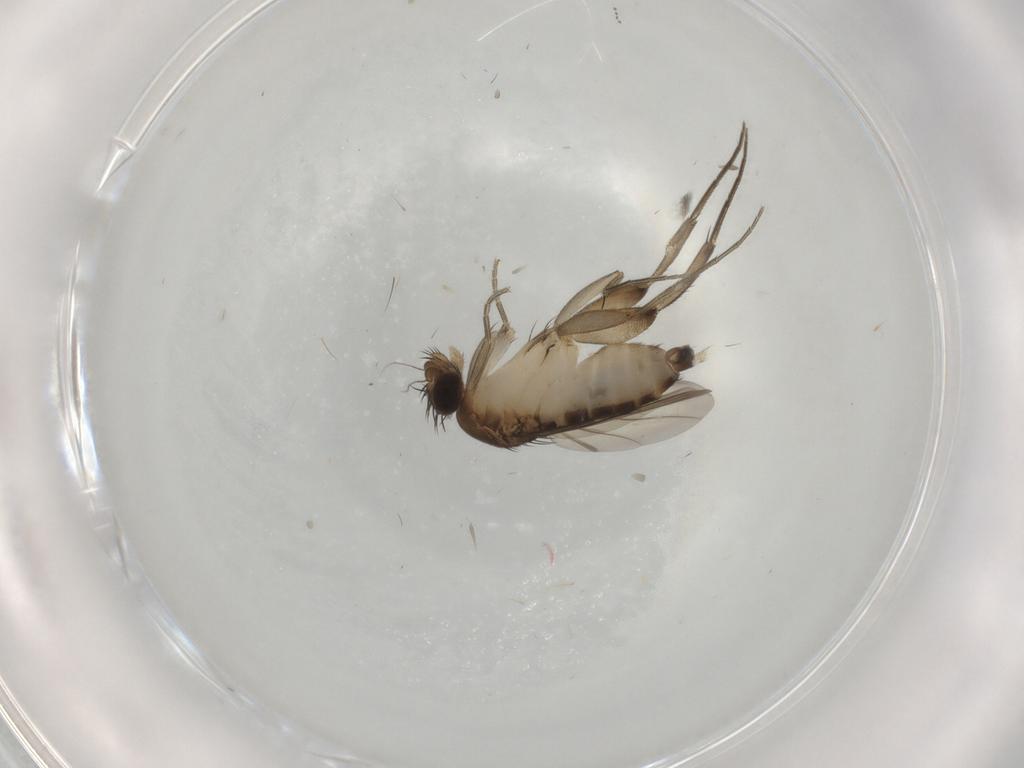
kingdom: Animalia
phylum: Arthropoda
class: Insecta
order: Diptera
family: Phoridae
